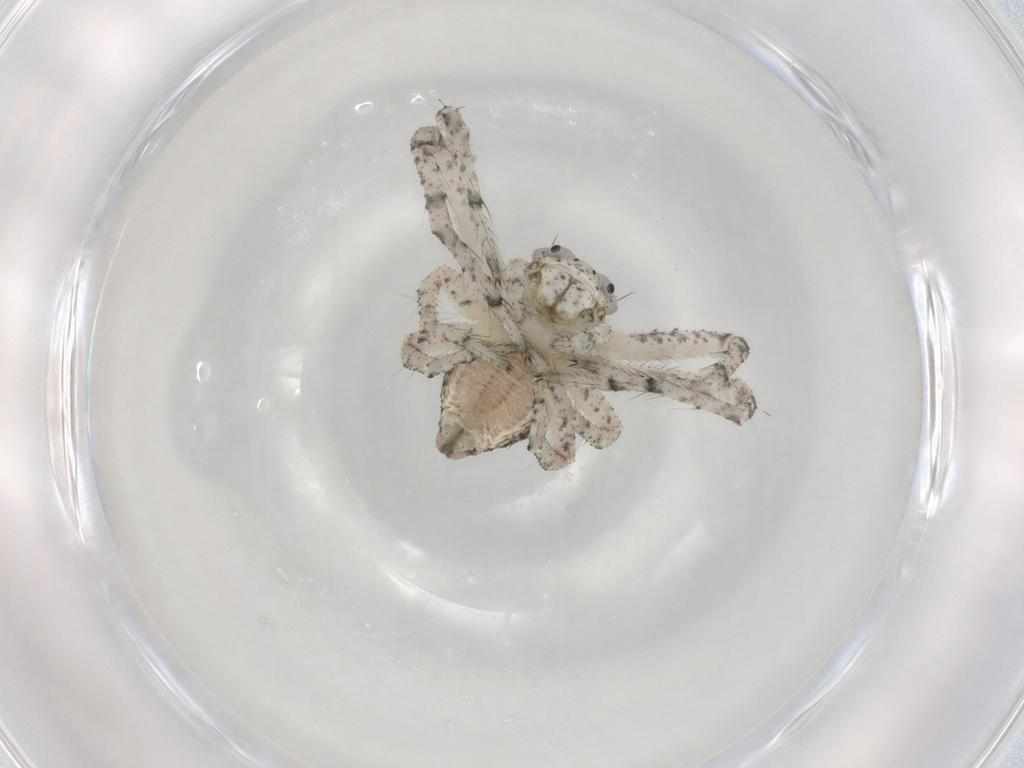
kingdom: Animalia
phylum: Arthropoda
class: Arachnida
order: Araneae
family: Thomisidae
